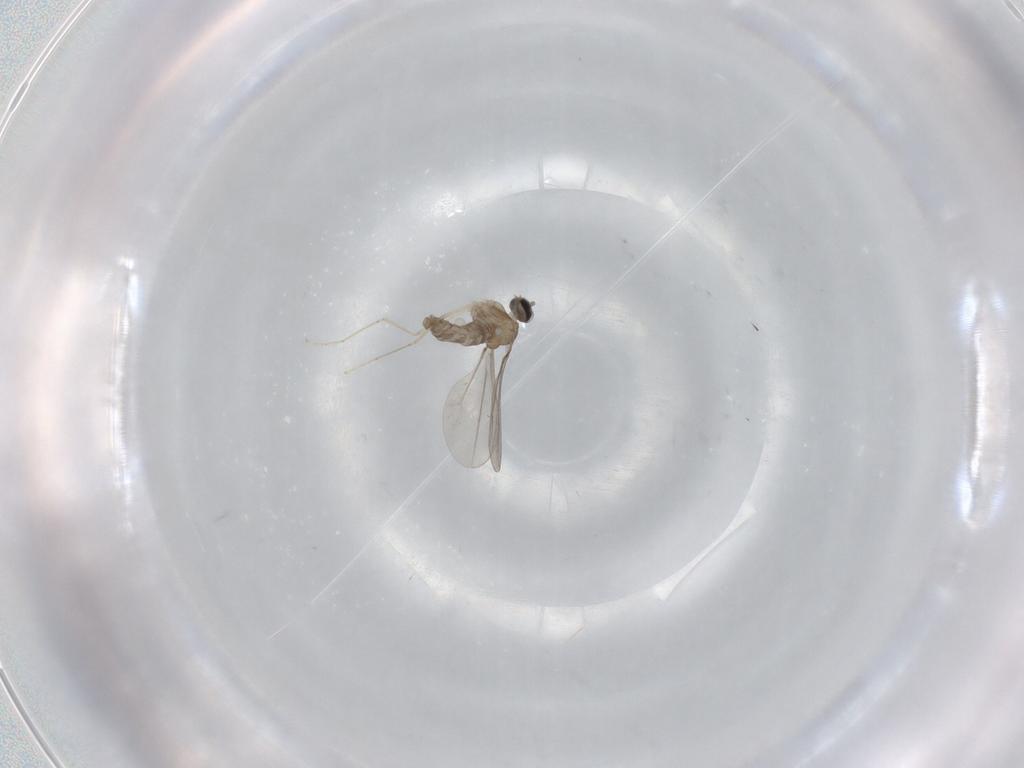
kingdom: Animalia
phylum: Arthropoda
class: Insecta
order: Diptera
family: Cecidomyiidae
